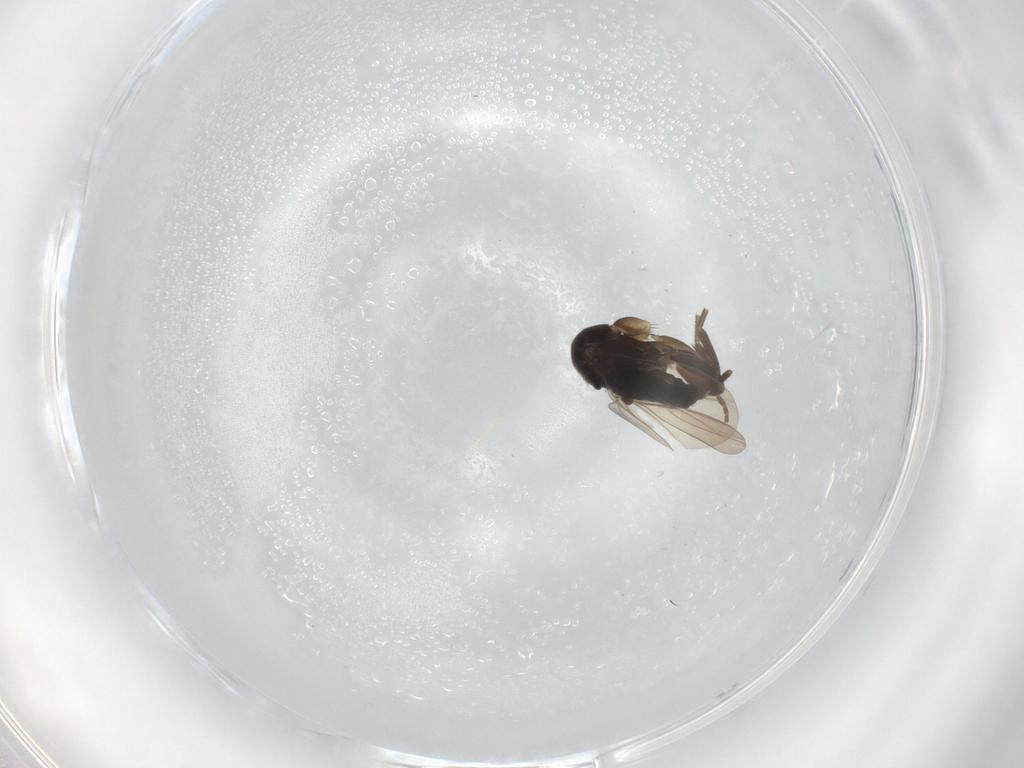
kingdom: Animalia
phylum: Arthropoda
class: Insecta
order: Diptera
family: Phoridae
